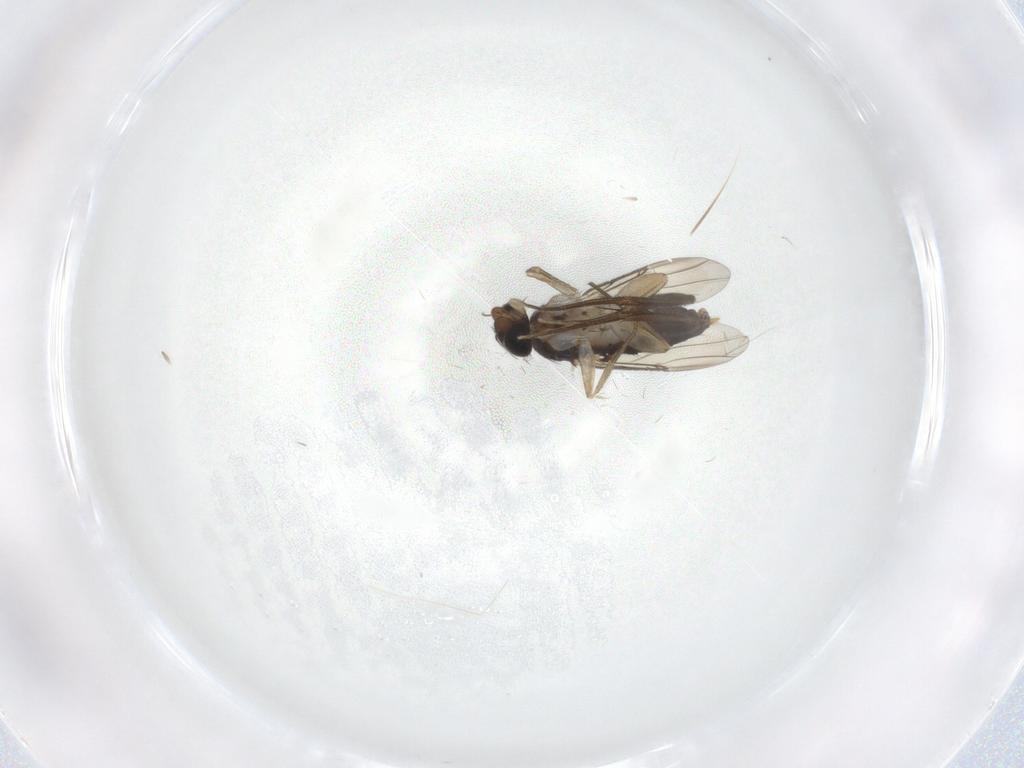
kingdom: Animalia
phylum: Arthropoda
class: Insecta
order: Diptera
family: Phoridae
